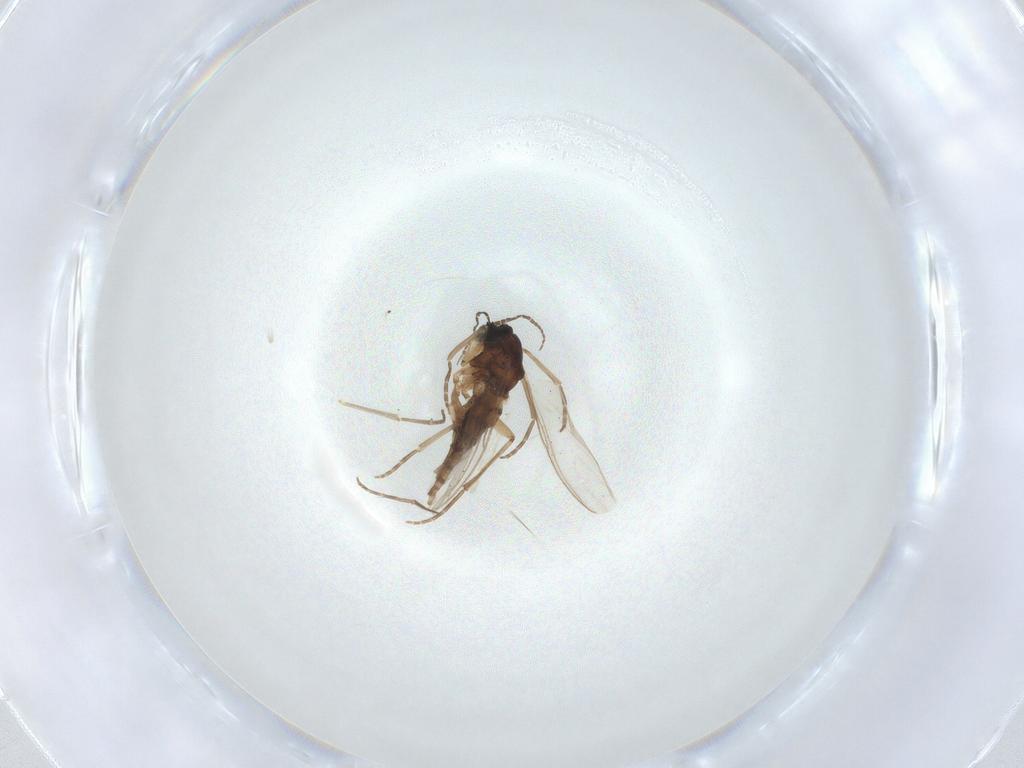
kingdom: Animalia
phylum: Arthropoda
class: Insecta
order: Diptera
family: Sciaridae
